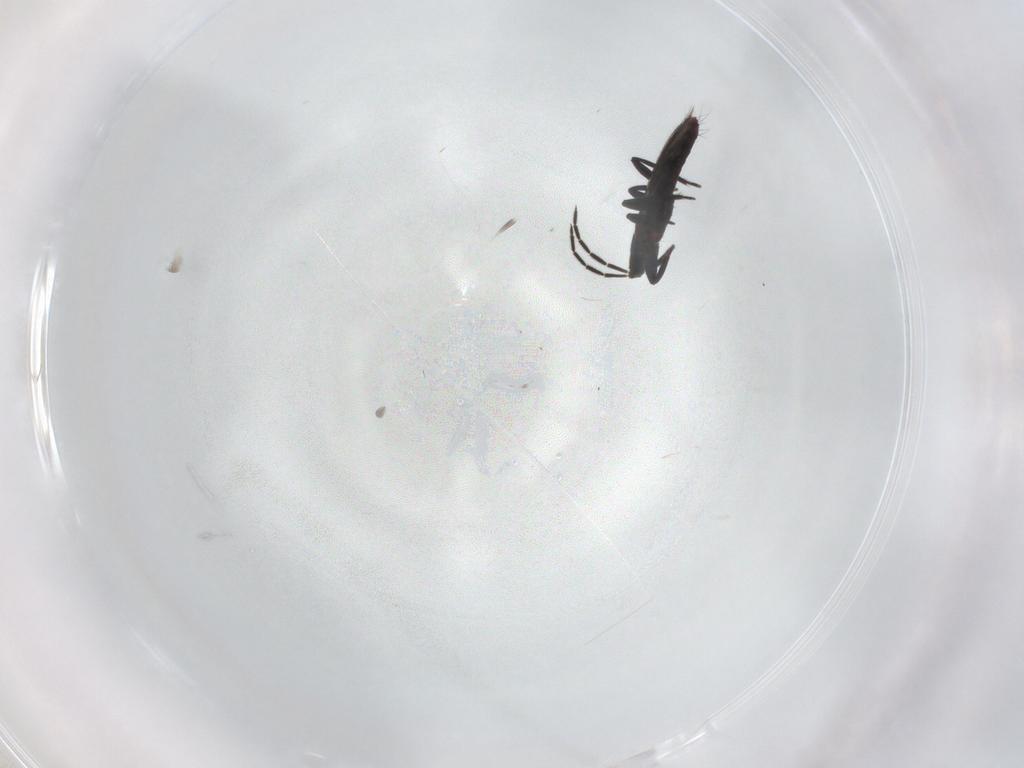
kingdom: Animalia
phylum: Arthropoda
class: Insecta
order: Thysanoptera
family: Aeolothripidae
